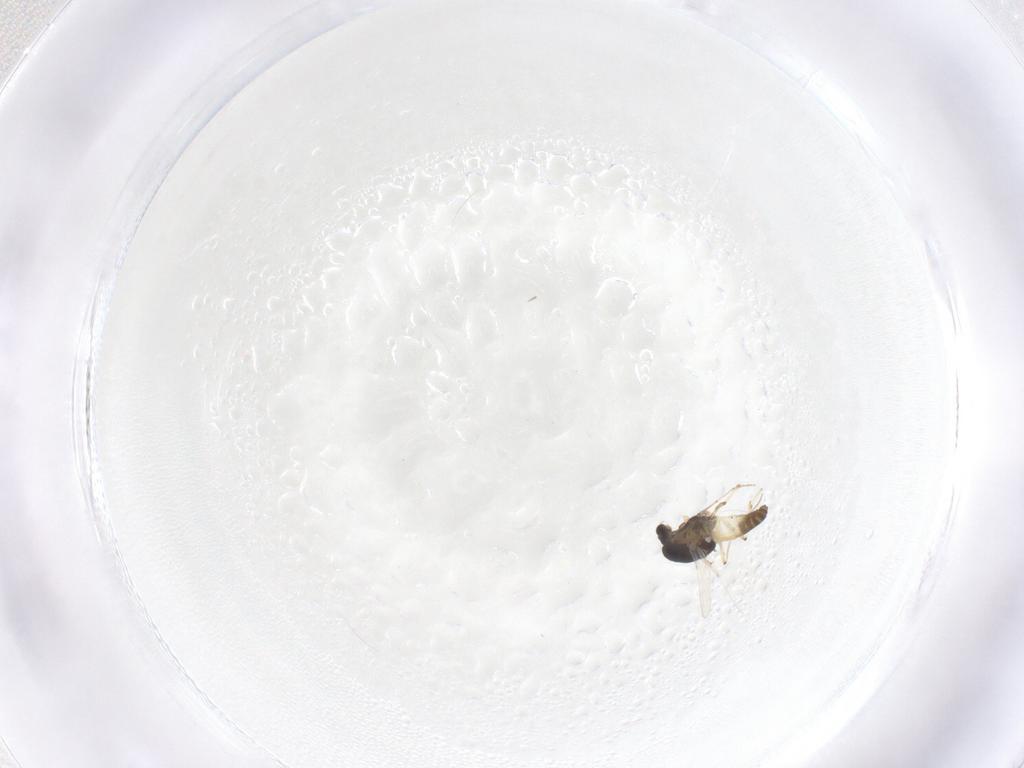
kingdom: Animalia
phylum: Arthropoda
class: Insecta
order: Diptera
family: Chironomidae
